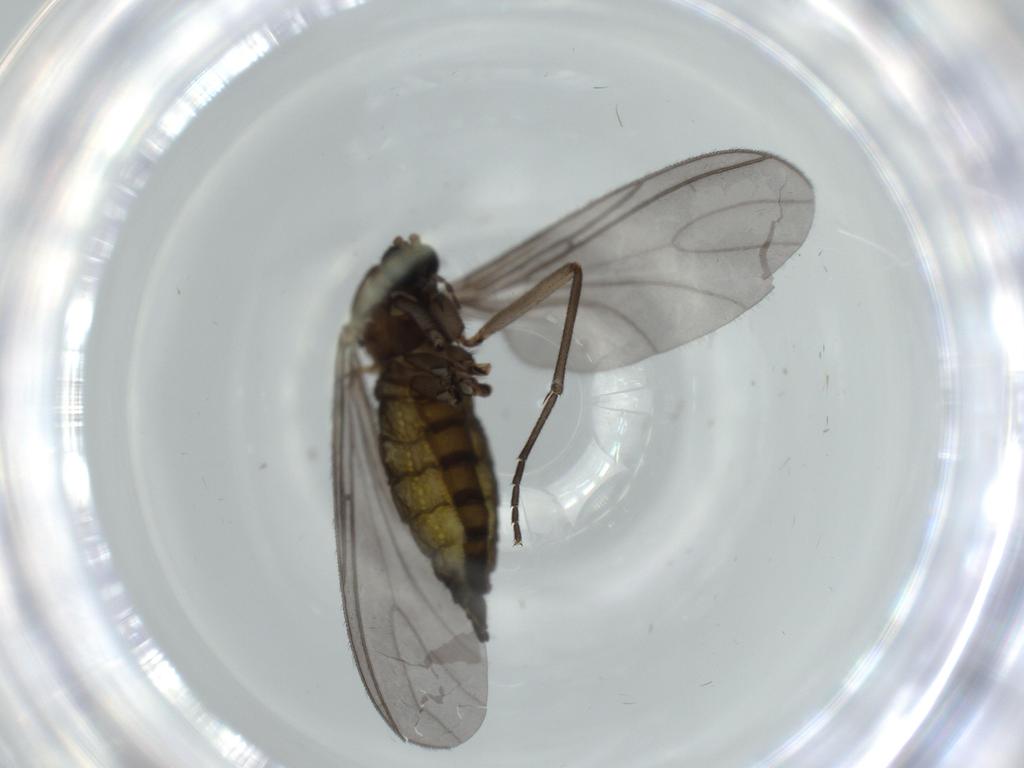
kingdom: Animalia
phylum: Arthropoda
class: Insecta
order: Diptera
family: Sciaridae
